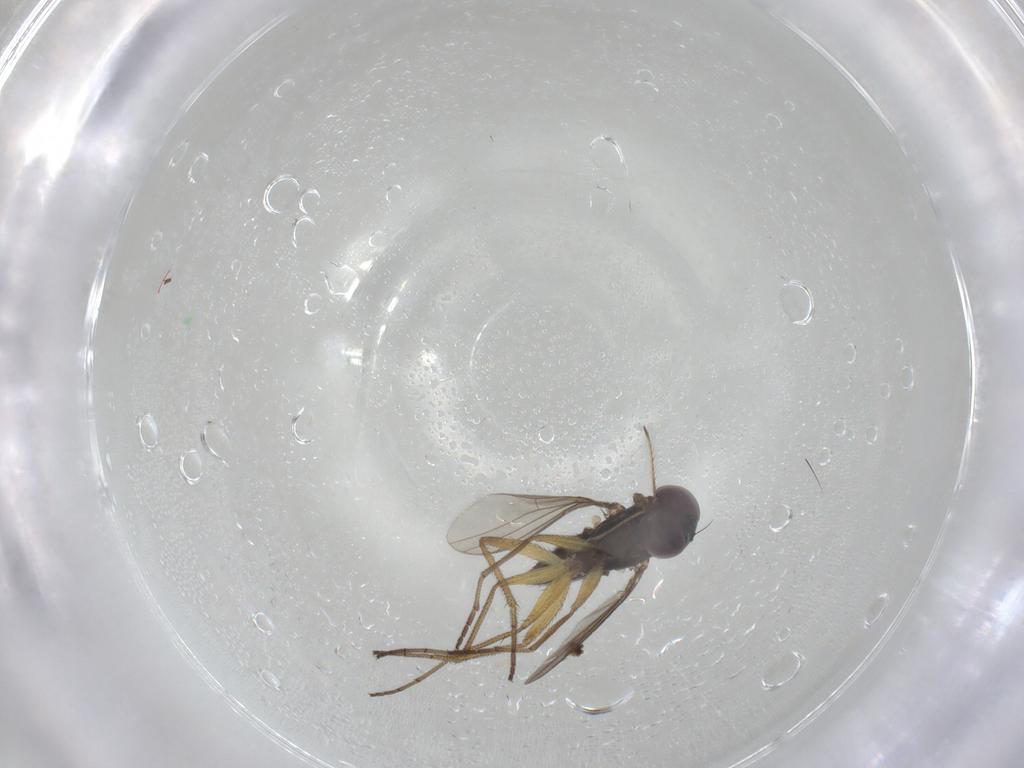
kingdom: Animalia
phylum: Arthropoda
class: Insecta
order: Diptera
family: Dolichopodidae
